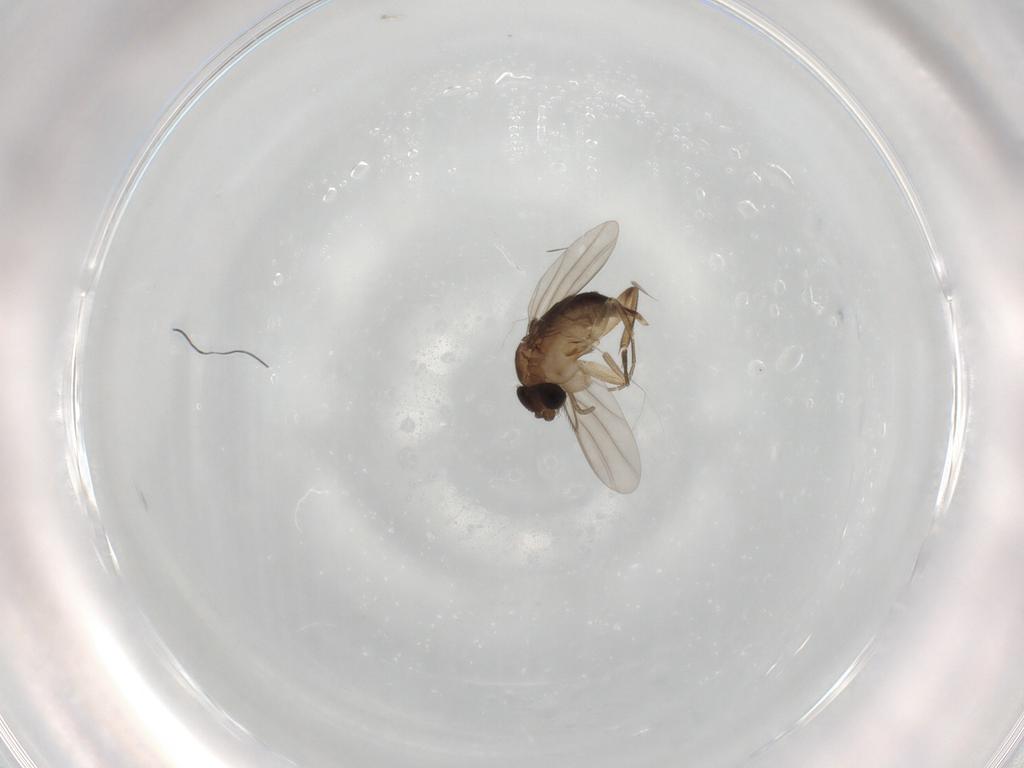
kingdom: Animalia
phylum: Arthropoda
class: Insecta
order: Diptera
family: Phoridae
